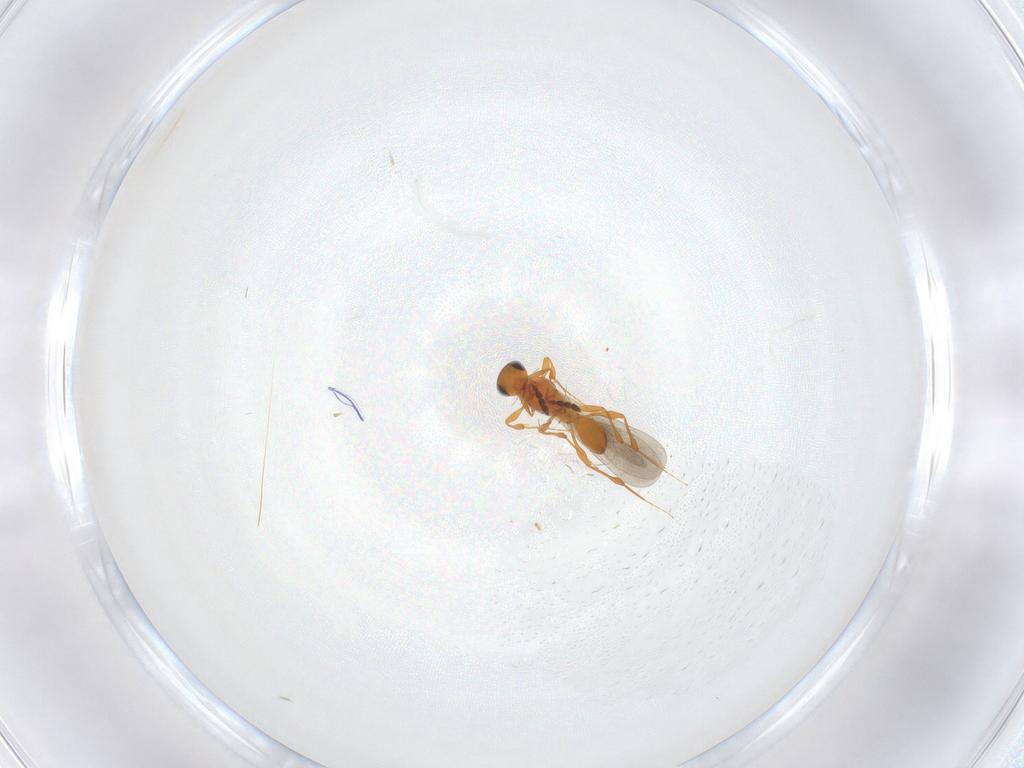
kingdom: Animalia
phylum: Arthropoda
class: Insecta
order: Hymenoptera
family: Platygastridae
